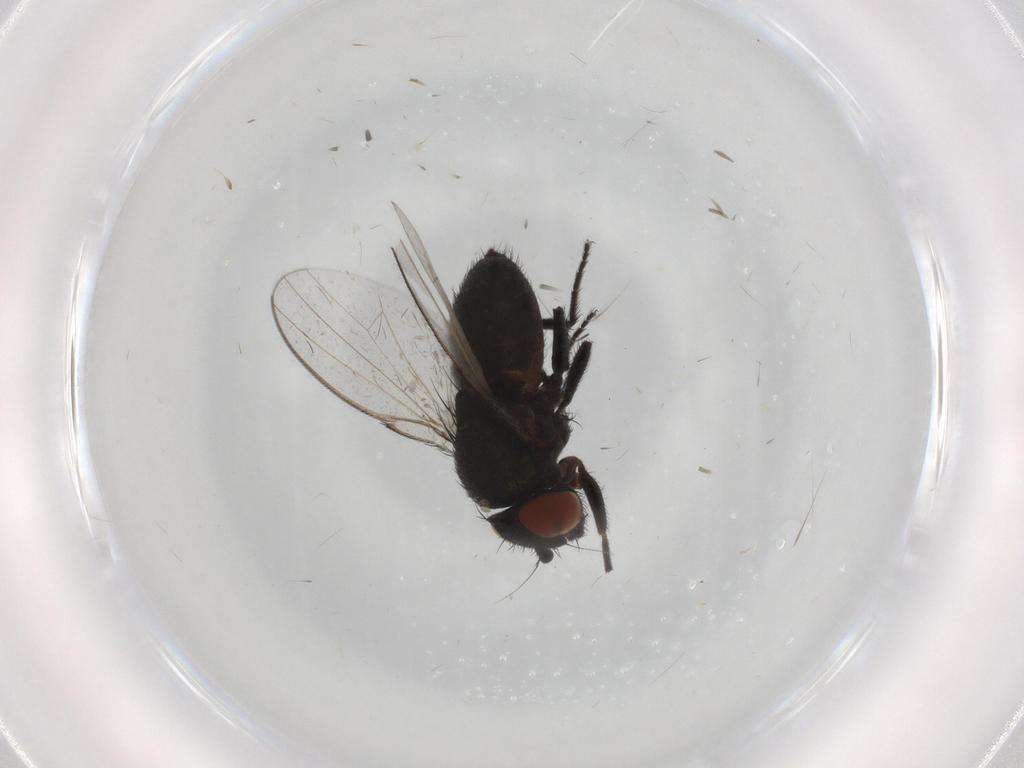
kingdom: Animalia
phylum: Arthropoda
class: Insecta
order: Diptera
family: Milichiidae
